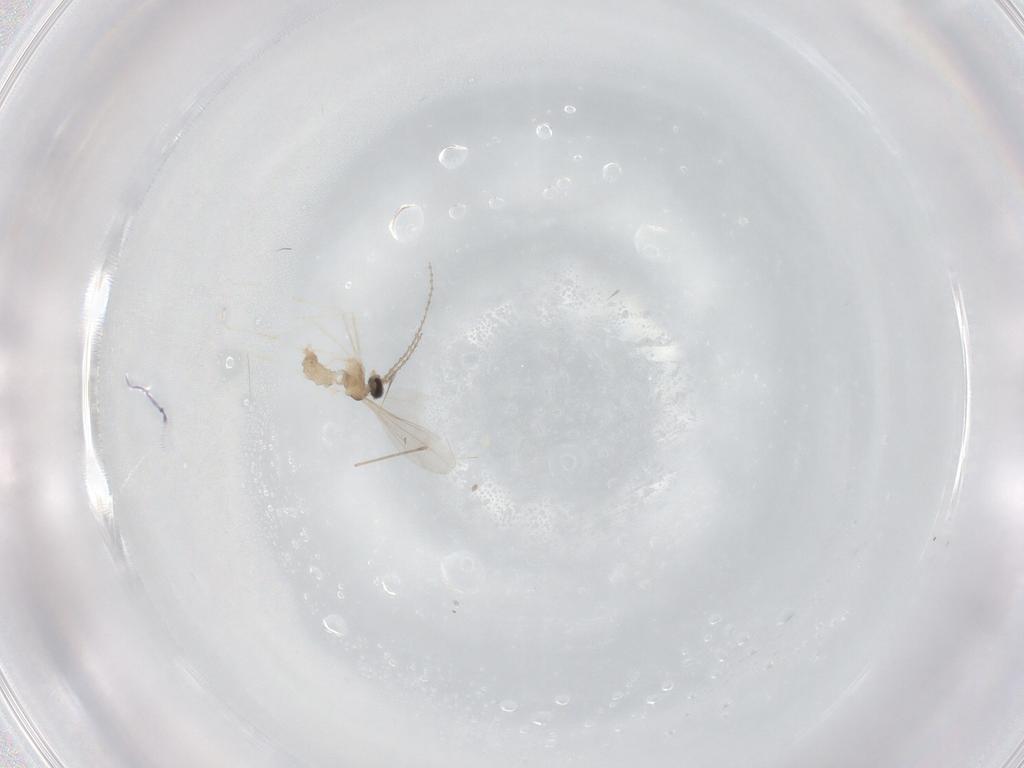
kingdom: Animalia
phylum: Arthropoda
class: Insecta
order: Diptera
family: Cecidomyiidae
